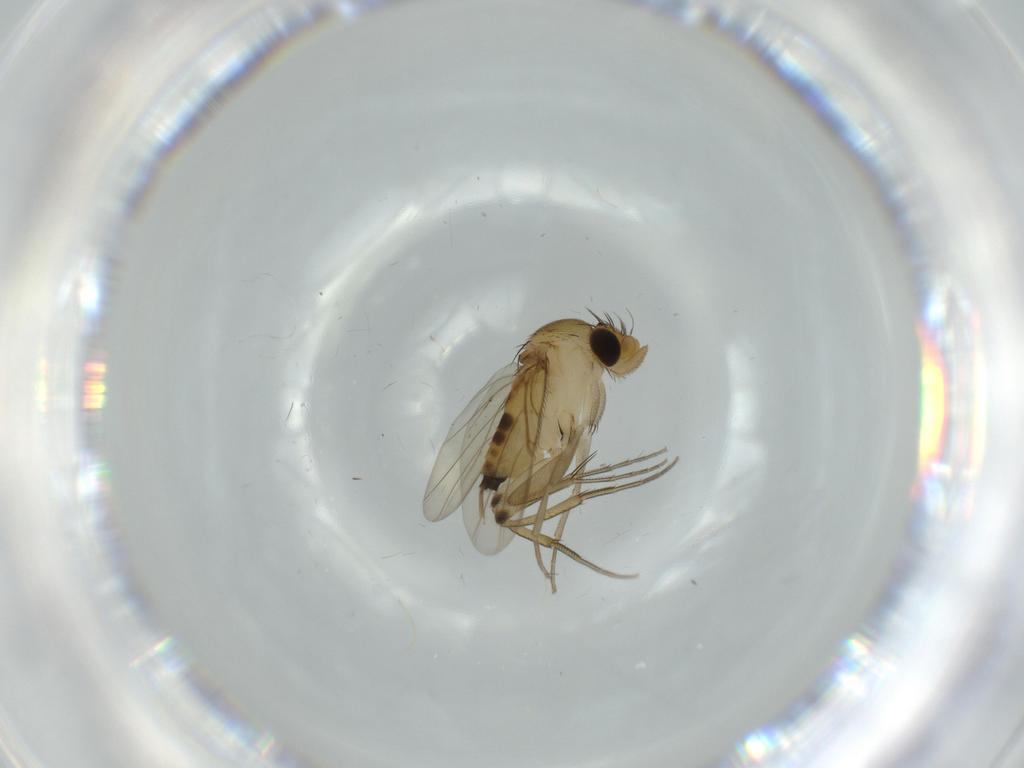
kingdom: Animalia
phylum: Arthropoda
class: Insecta
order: Diptera
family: Phoridae
